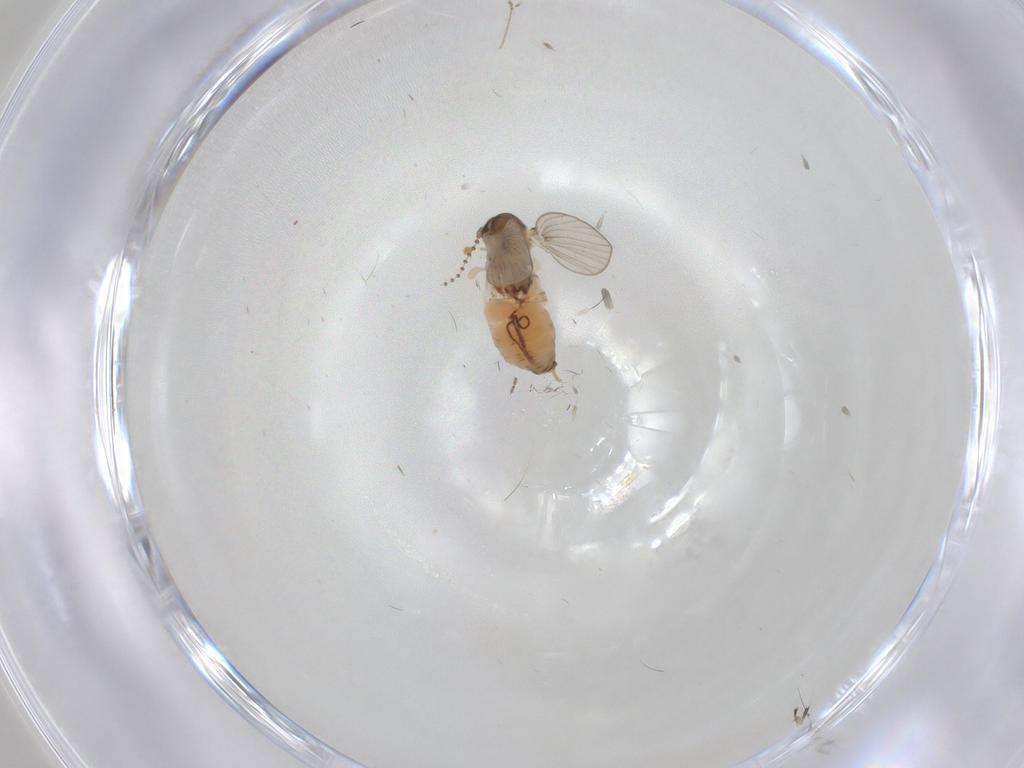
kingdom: Animalia
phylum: Arthropoda
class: Insecta
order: Diptera
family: Psychodidae
